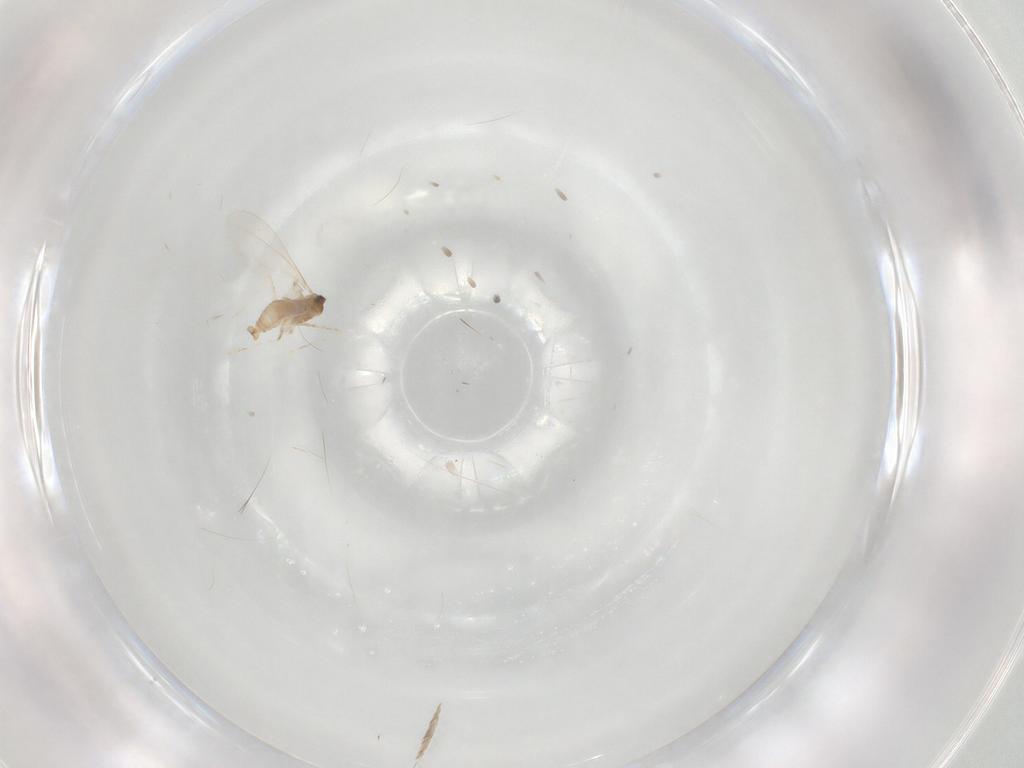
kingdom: Animalia
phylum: Arthropoda
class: Insecta
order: Diptera
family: Cecidomyiidae
